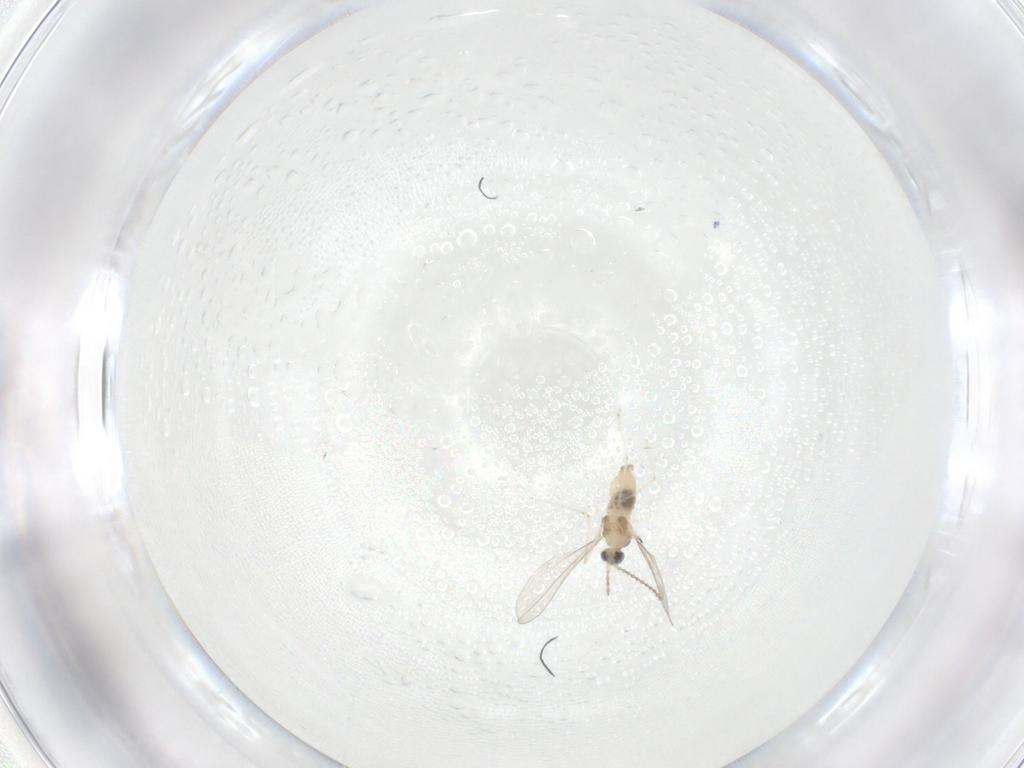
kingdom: Animalia
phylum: Arthropoda
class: Insecta
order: Diptera
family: Cecidomyiidae
